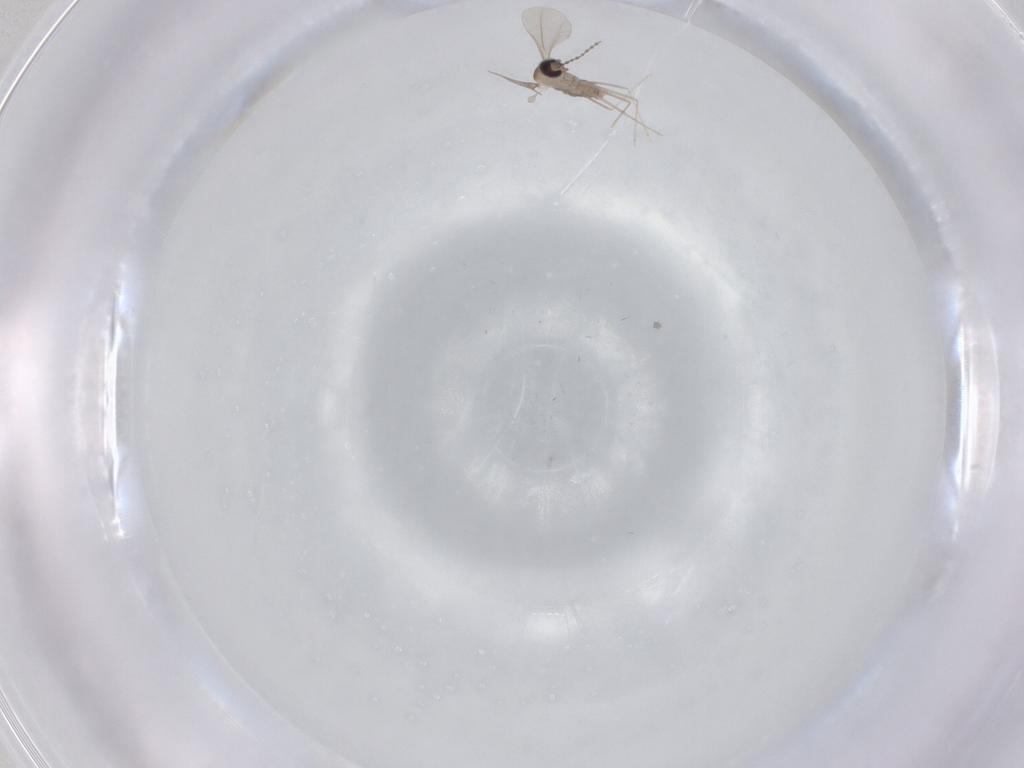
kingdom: Animalia
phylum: Arthropoda
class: Insecta
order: Diptera
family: Cecidomyiidae
